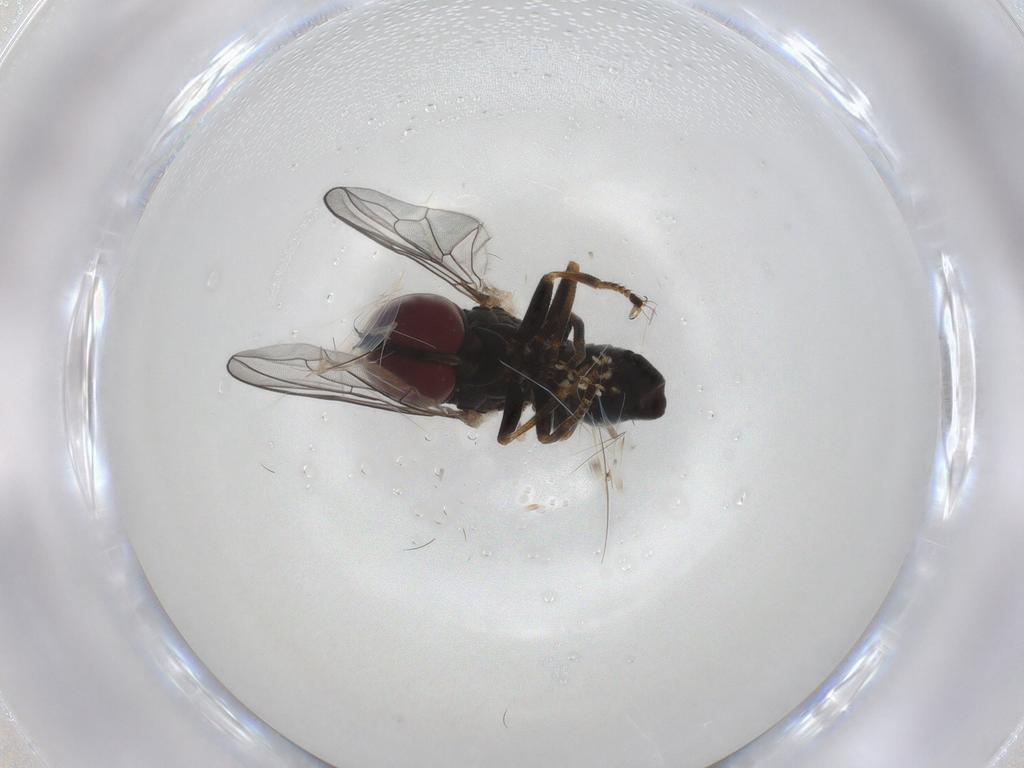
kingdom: Animalia
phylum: Arthropoda
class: Insecta
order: Diptera
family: Pipunculidae
